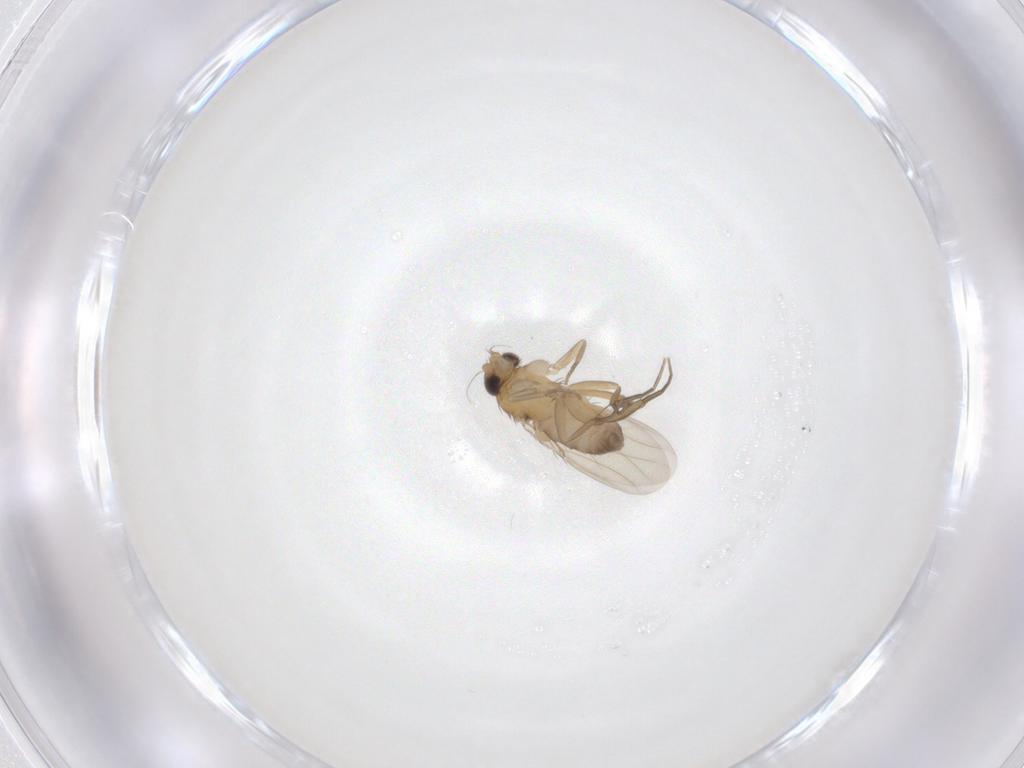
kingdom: Animalia
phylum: Arthropoda
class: Insecta
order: Diptera
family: Phoridae
